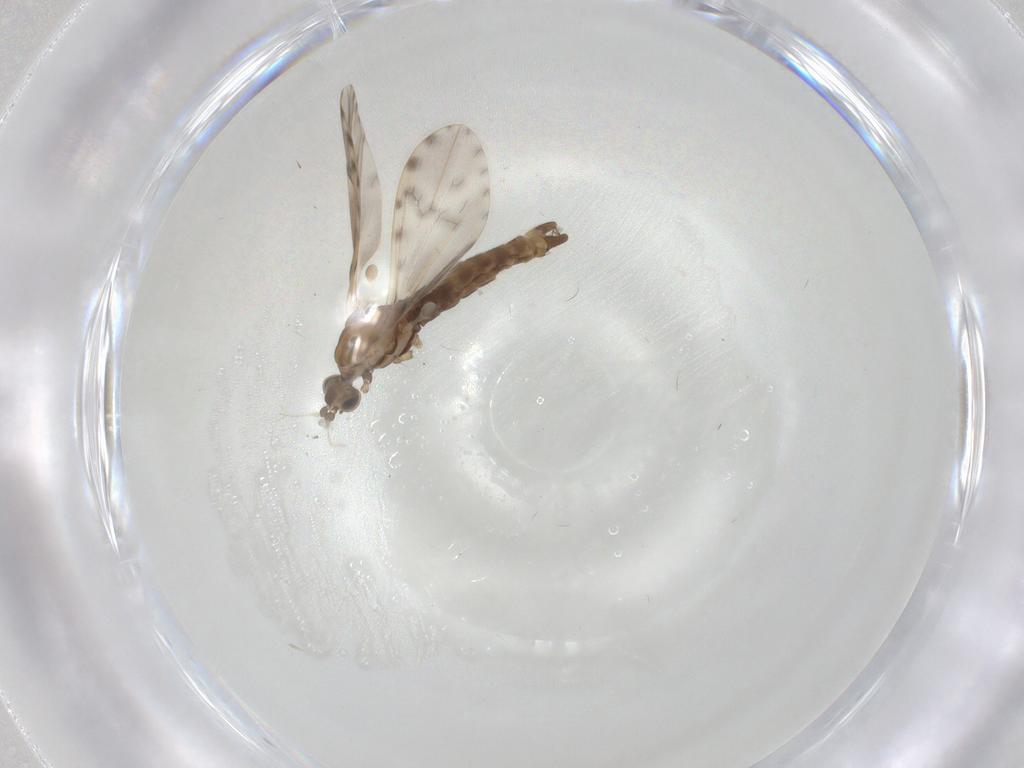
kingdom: Animalia
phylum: Arthropoda
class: Insecta
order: Diptera
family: Limoniidae
